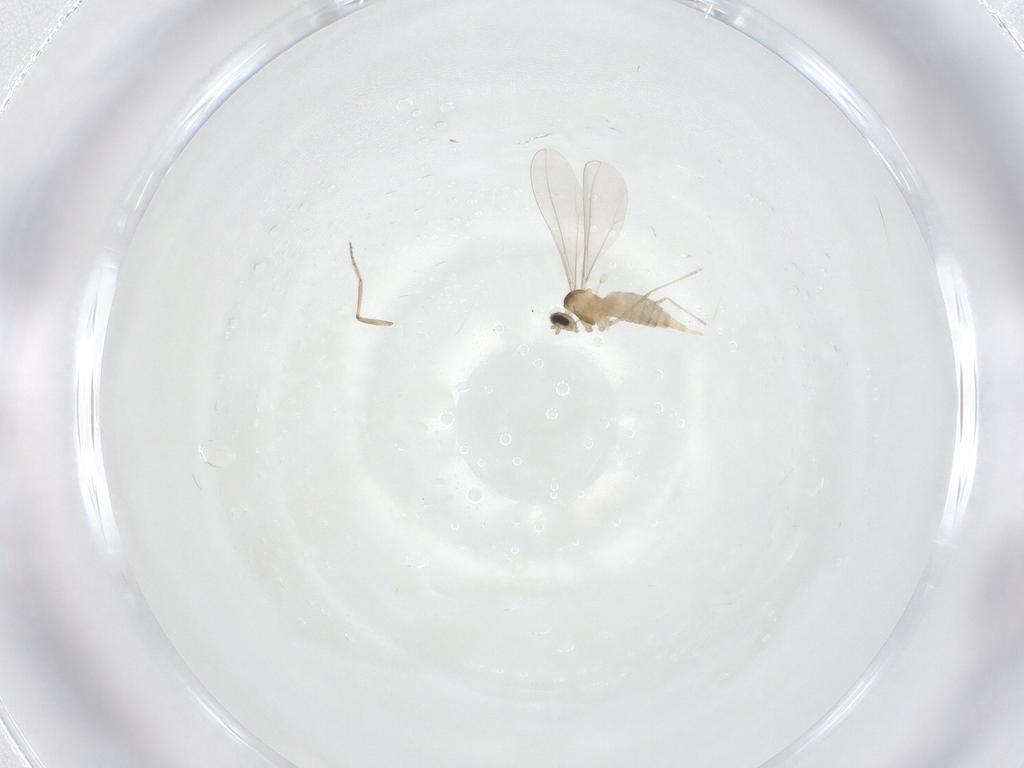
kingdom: Animalia
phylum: Arthropoda
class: Insecta
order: Diptera
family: Cecidomyiidae
